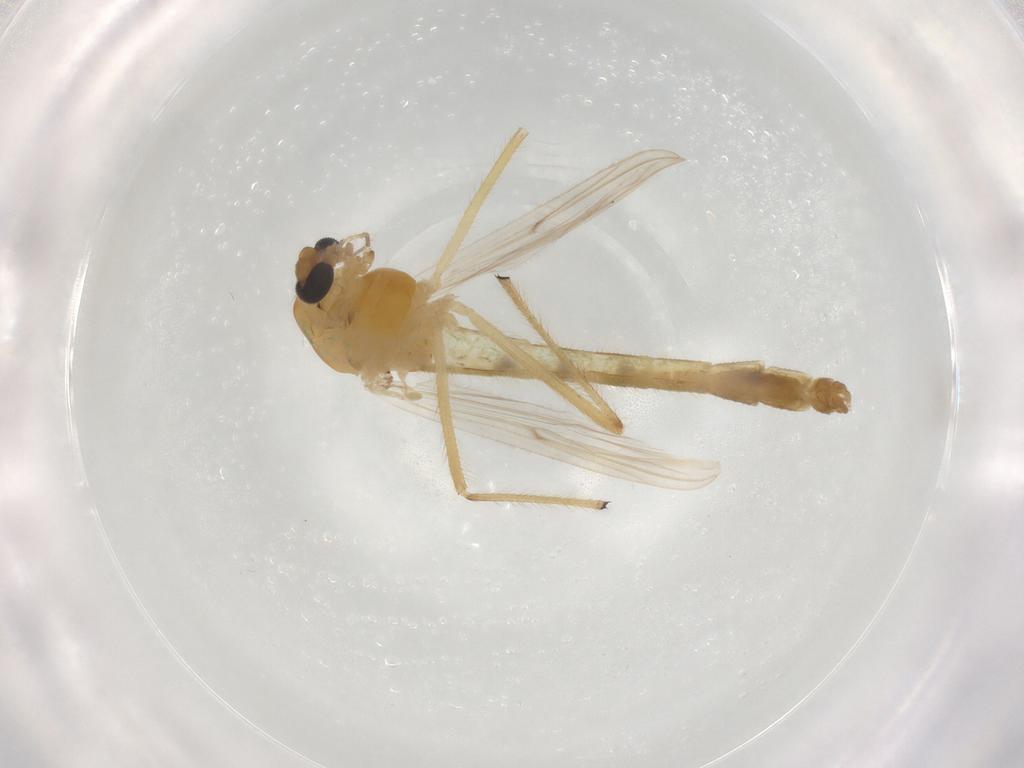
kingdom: Animalia
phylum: Arthropoda
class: Insecta
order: Diptera
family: Chironomidae
